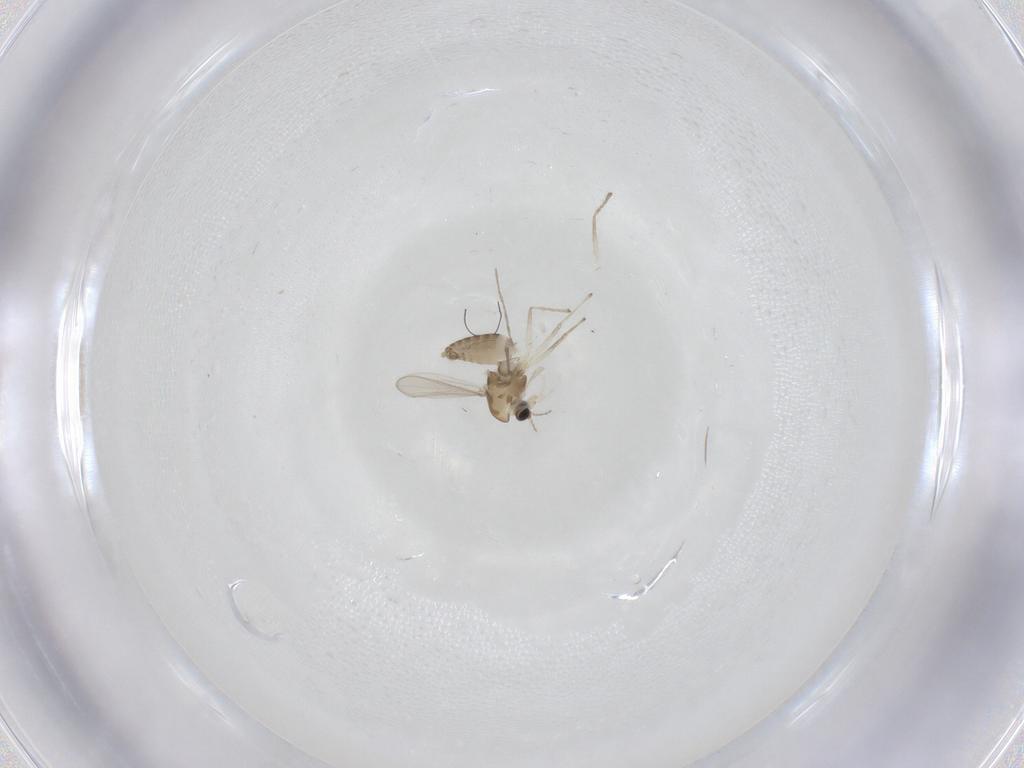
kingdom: Animalia
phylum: Arthropoda
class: Insecta
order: Diptera
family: Chironomidae
